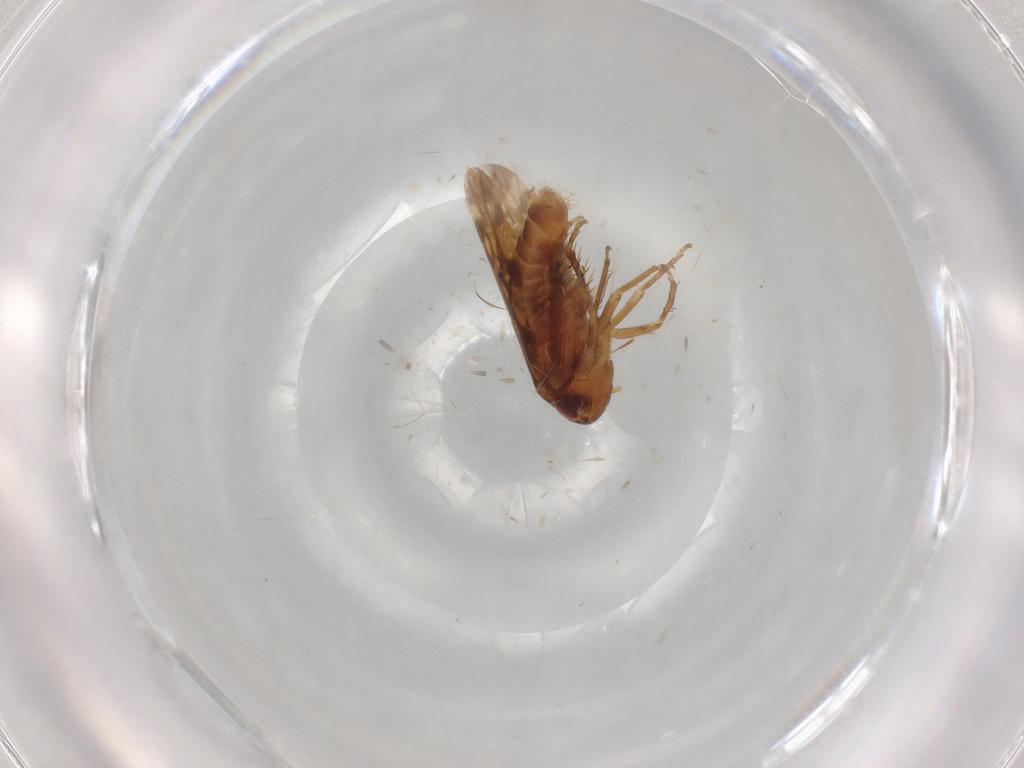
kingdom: Animalia
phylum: Arthropoda
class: Insecta
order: Hemiptera
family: Cicadellidae
